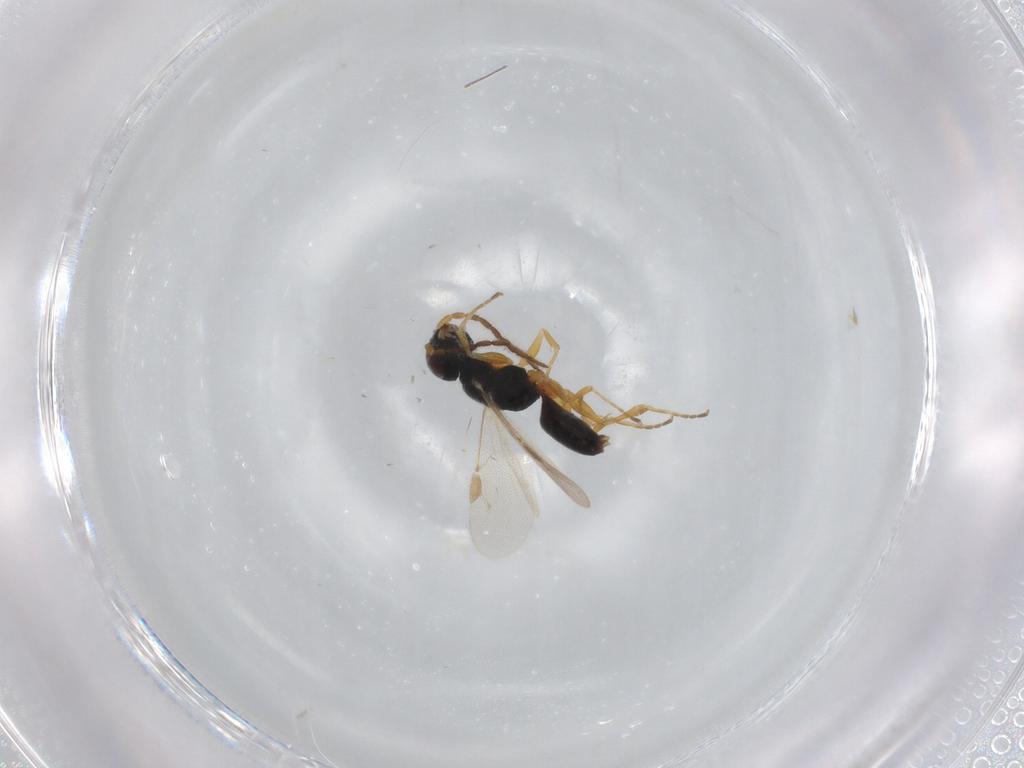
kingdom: Animalia
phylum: Arthropoda
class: Insecta
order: Hymenoptera
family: Dryinidae
